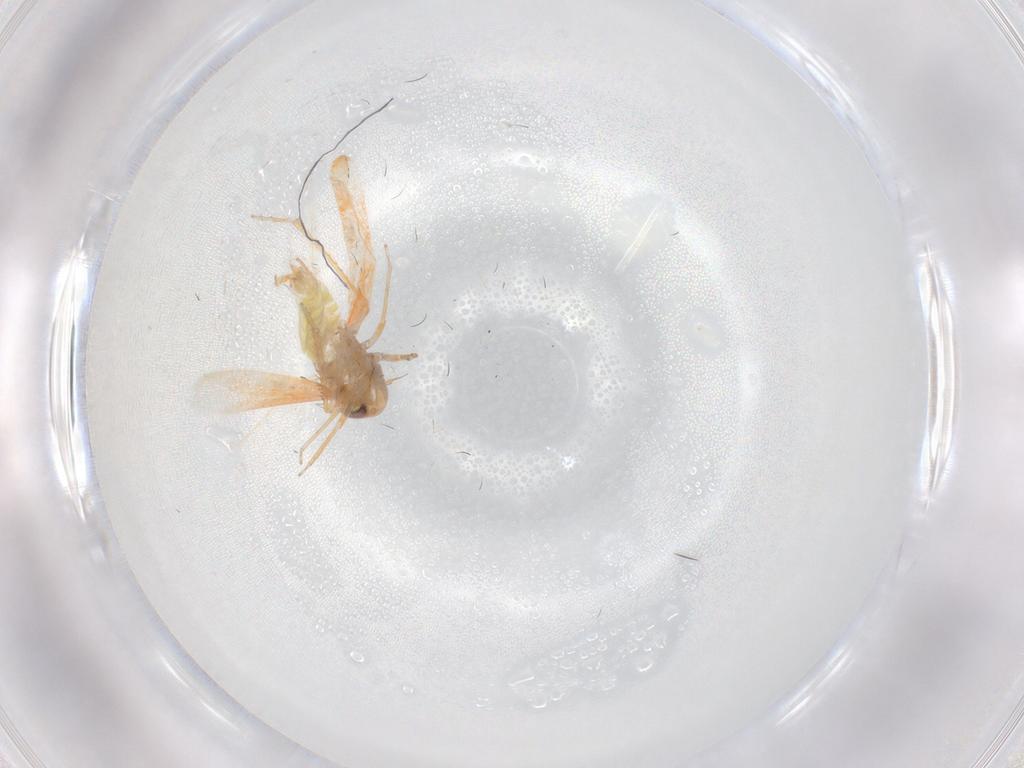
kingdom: Animalia
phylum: Arthropoda
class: Insecta
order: Hemiptera
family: Cicadellidae
